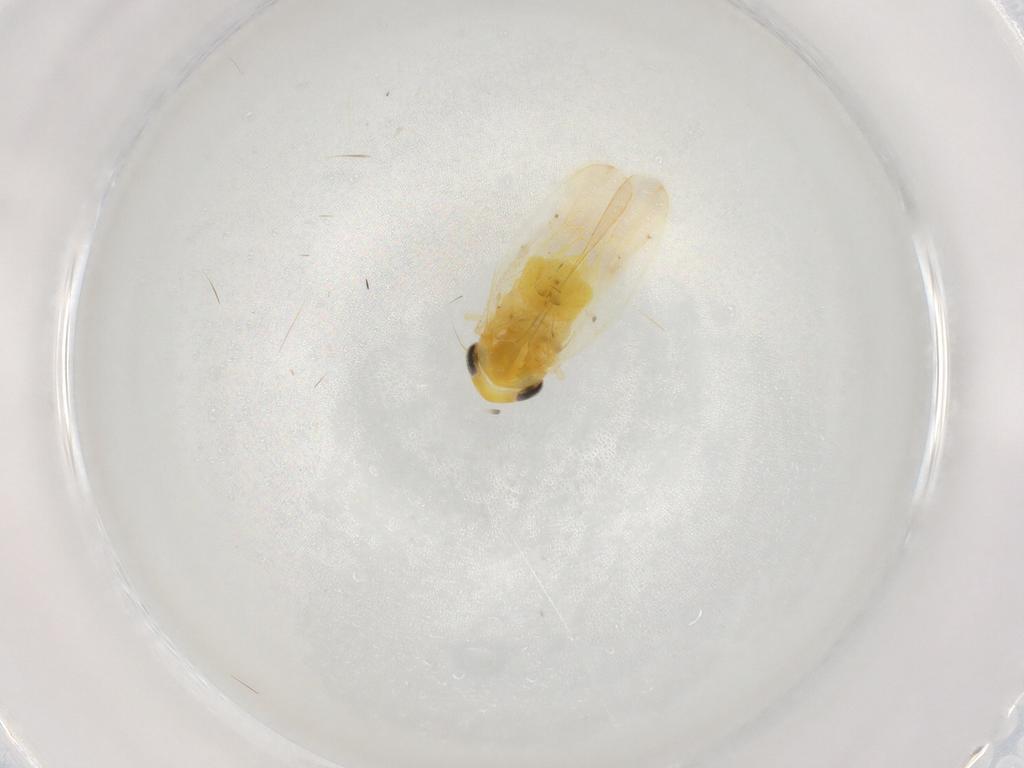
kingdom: Animalia
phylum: Arthropoda
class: Insecta
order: Hemiptera
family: Cicadellidae
